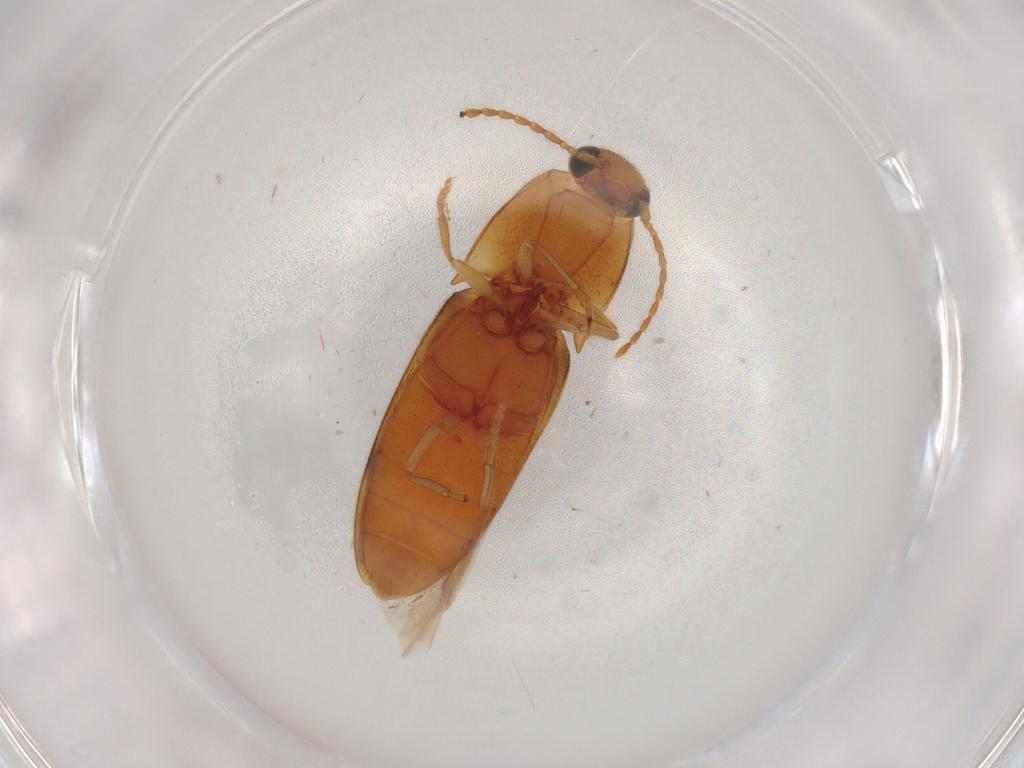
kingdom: Animalia
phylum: Arthropoda
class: Insecta
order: Coleoptera
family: Elateridae
